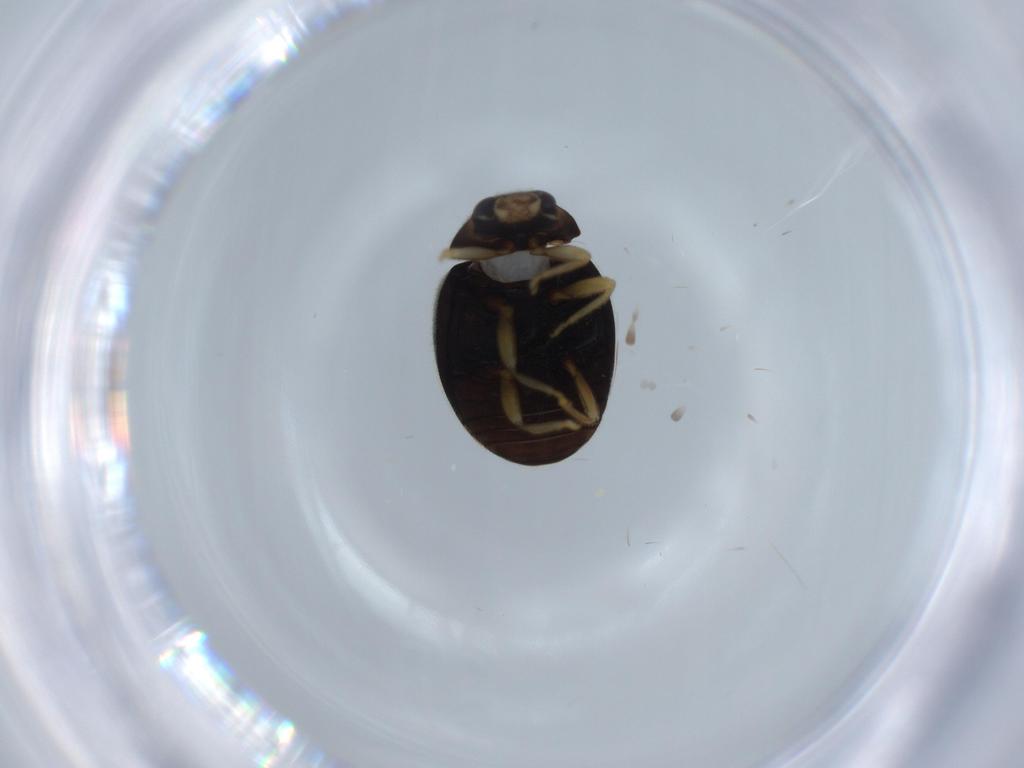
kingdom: Animalia
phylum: Arthropoda
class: Insecta
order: Coleoptera
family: Coccinellidae
